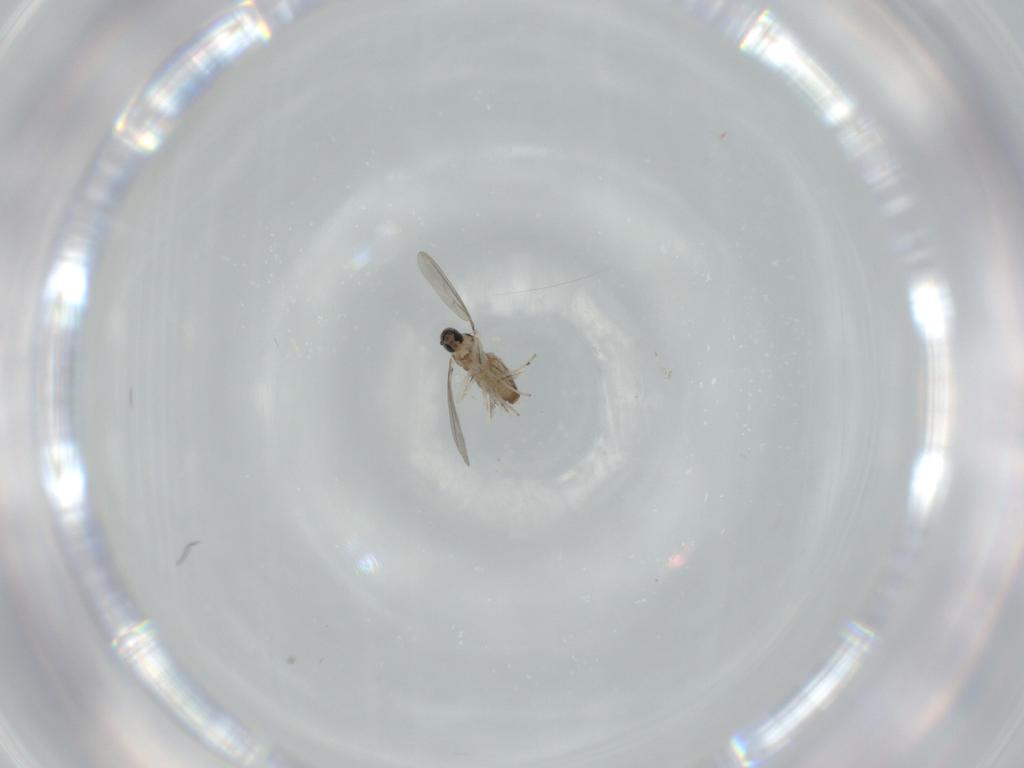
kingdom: Animalia
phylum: Arthropoda
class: Insecta
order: Diptera
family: Cecidomyiidae
